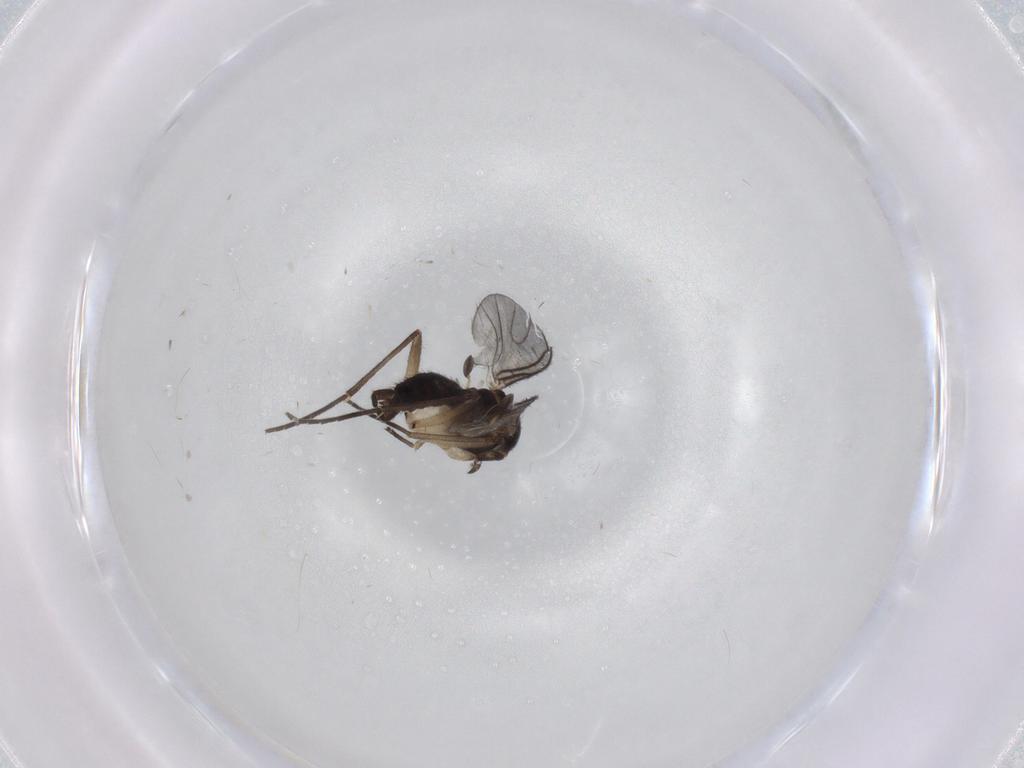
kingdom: Animalia
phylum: Arthropoda
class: Insecta
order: Diptera
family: Sciaridae
